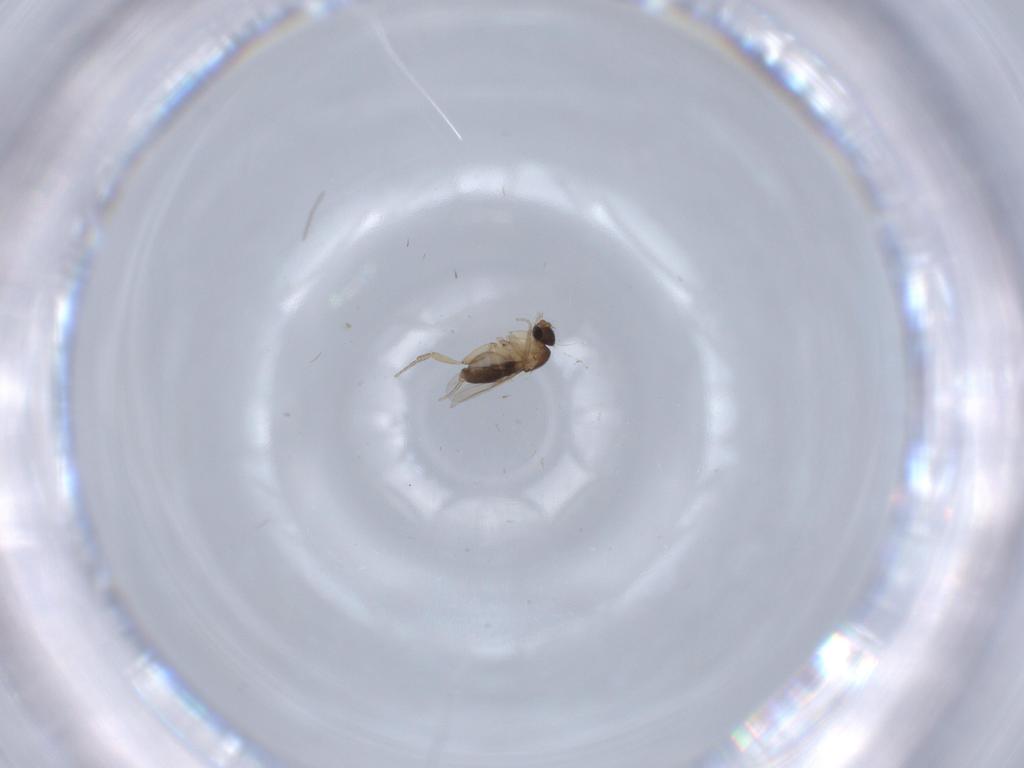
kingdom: Animalia
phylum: Arthropoda
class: Insecta
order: Diptera
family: Phoridae
